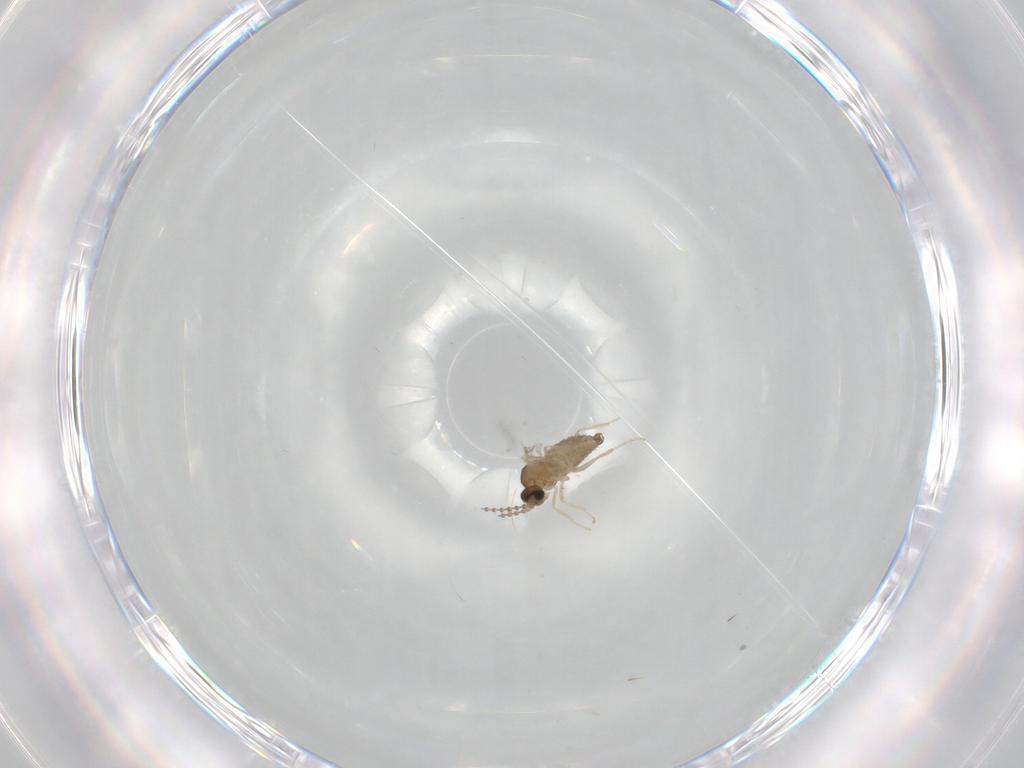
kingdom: Animalia
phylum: Arthropoda
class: Insecta
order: Diptera
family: Cecidomyiidae
